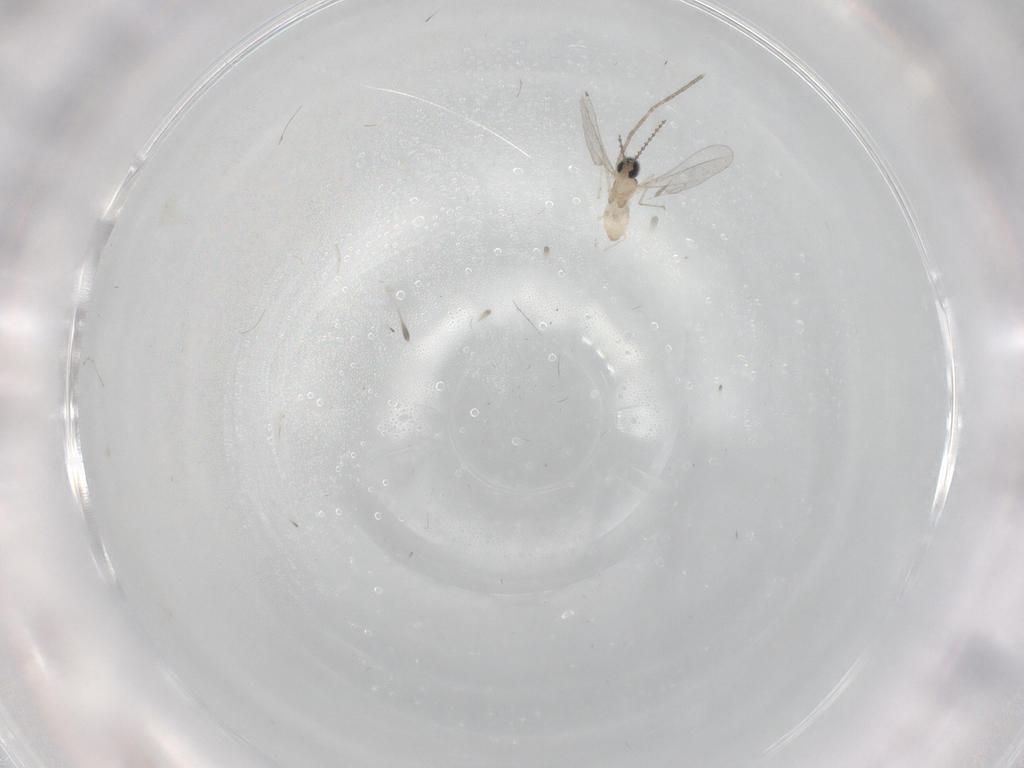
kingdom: Animalia
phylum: Arthropoda
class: Insecta
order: Diptera
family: Cecidomyiidae
